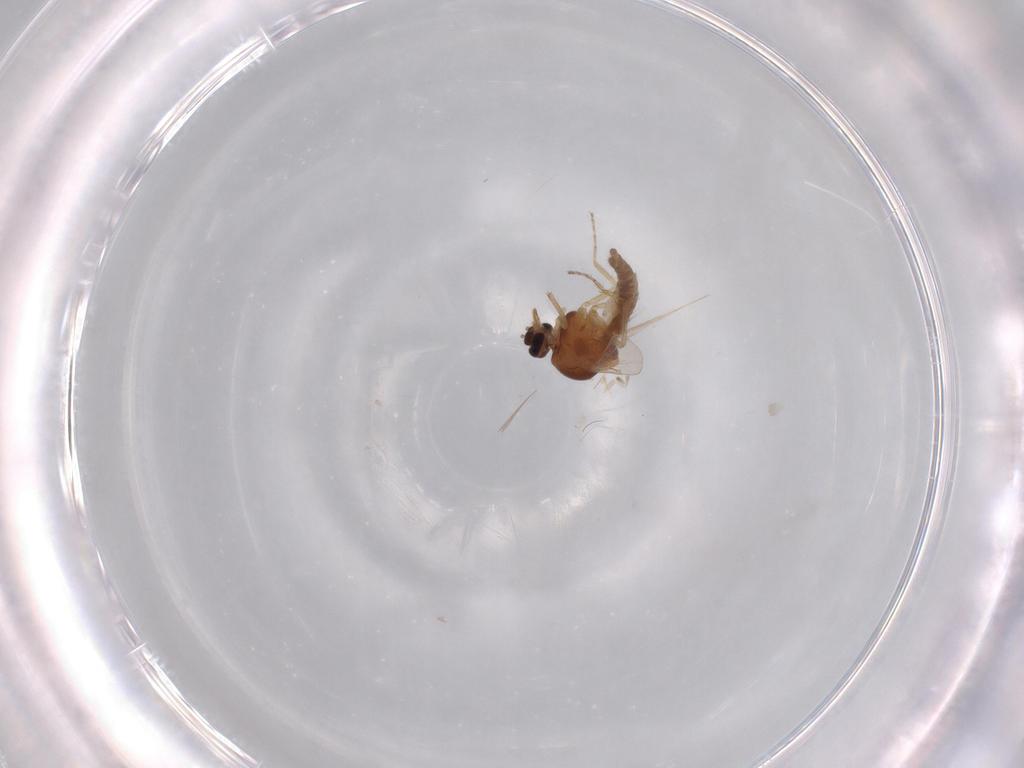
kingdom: Animalia
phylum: Arthropoda
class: Insecta
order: Diptera
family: Ceratopogonidae
